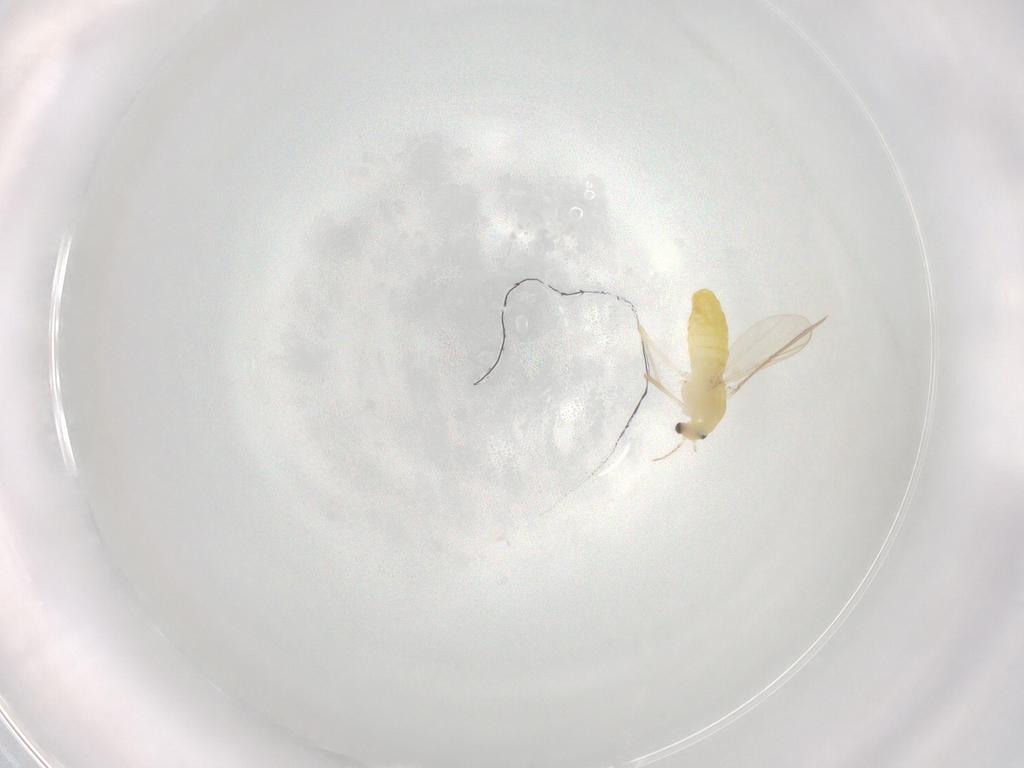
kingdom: Animalia
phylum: Arthropoda
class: Insecta
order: Diptera
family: Chironomidae
